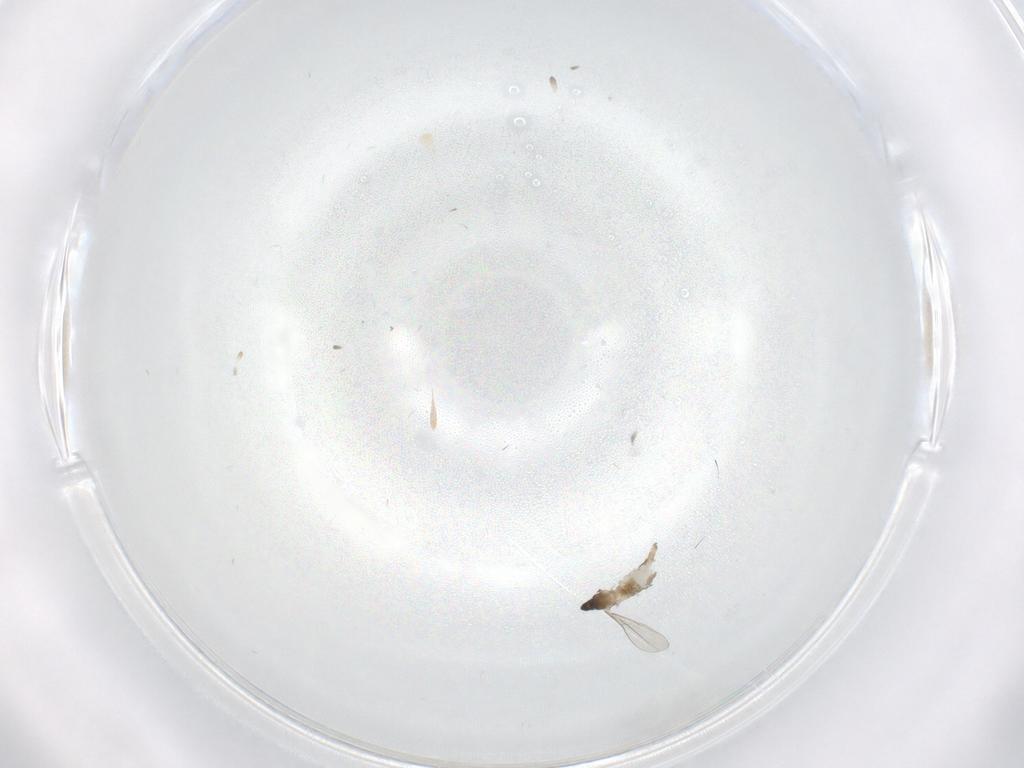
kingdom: Animalia
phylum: Arthropoda
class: Insecta
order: Diptera
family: Cecidomyiidae
